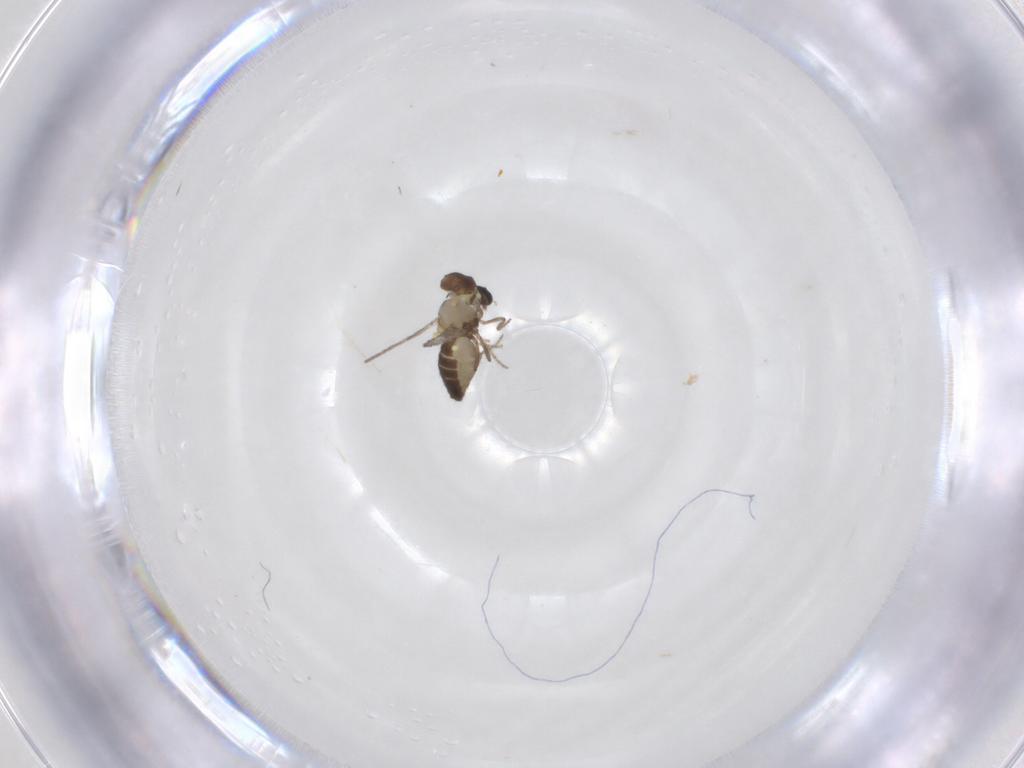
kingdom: Animalia
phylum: Arthropoda
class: Insecta
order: Diptera
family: Ceratopogonidae
